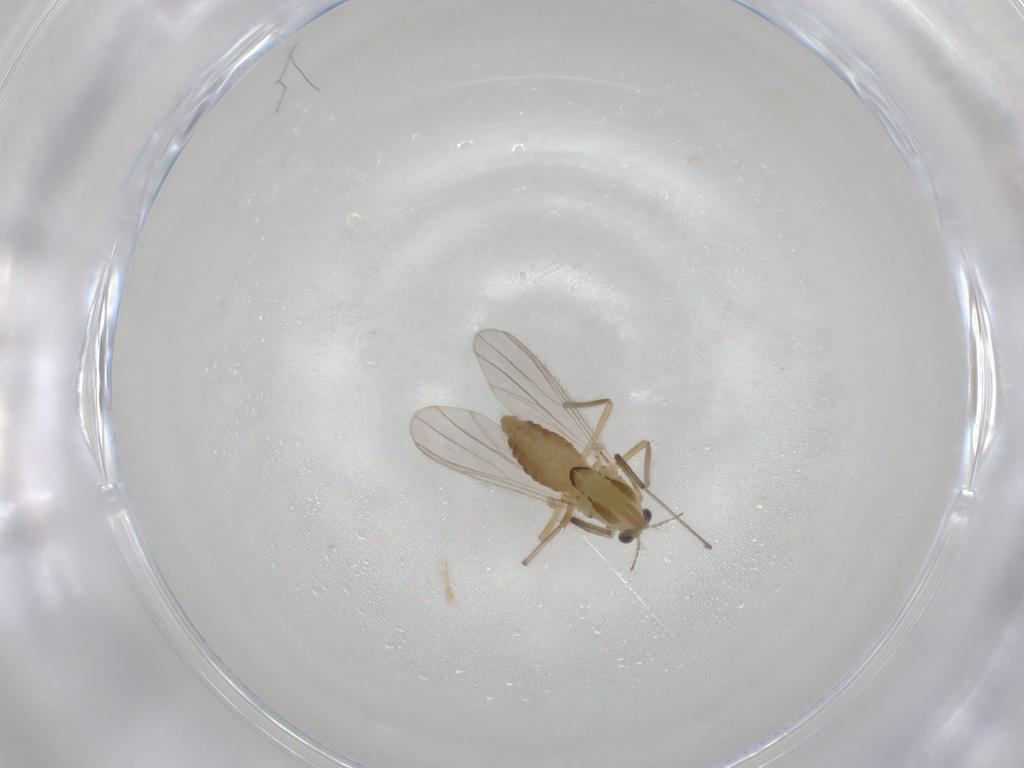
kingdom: Animalia
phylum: Arthropoda
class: Insecta
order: Diptera
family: Chironomidae
